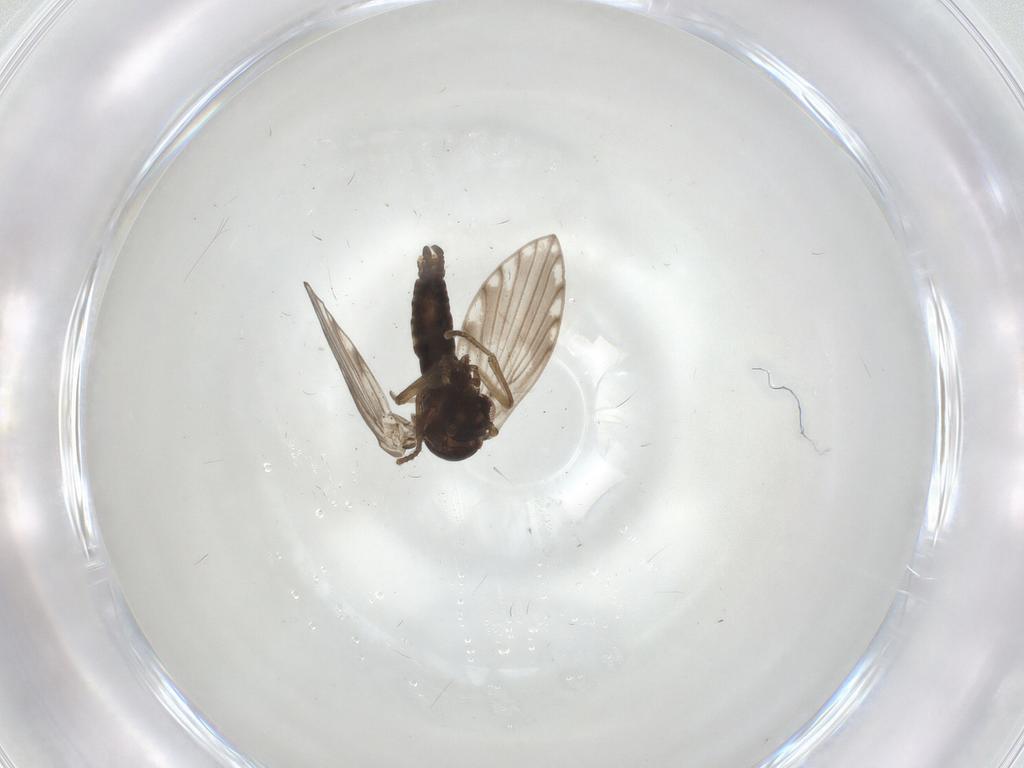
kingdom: Animalia
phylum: Arthropoda
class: Insecta
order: Diptera
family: Psychodidae
